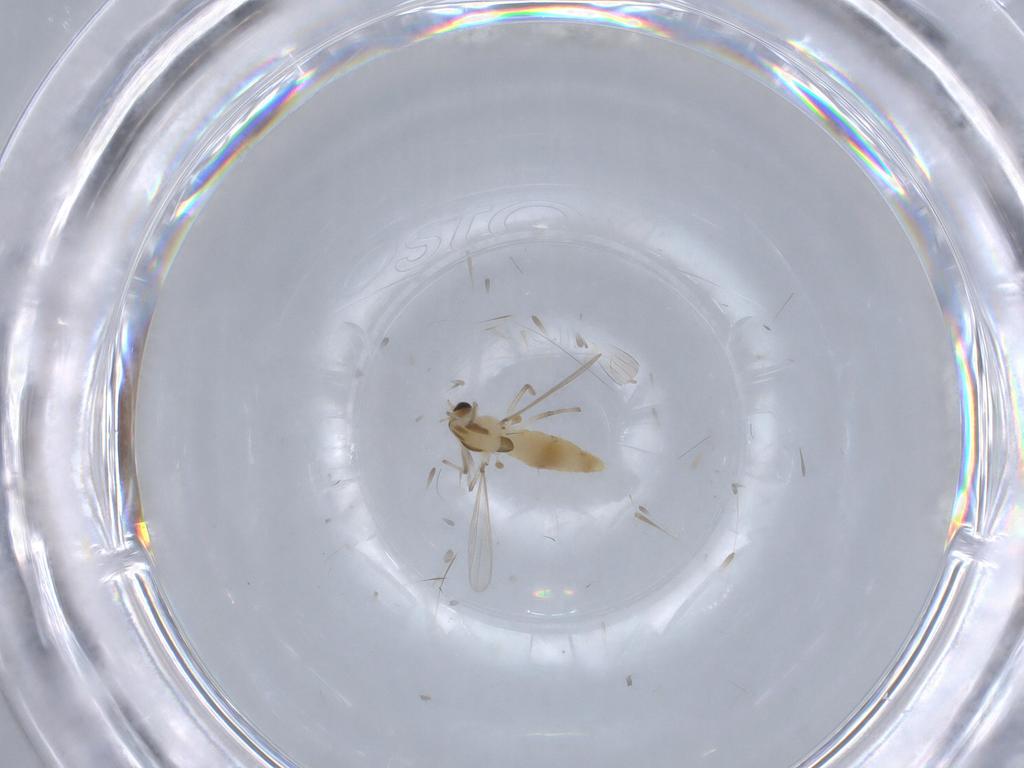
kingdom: Animalia
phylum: Arthropoda
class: Insecta
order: Diptera
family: Chironomidae
